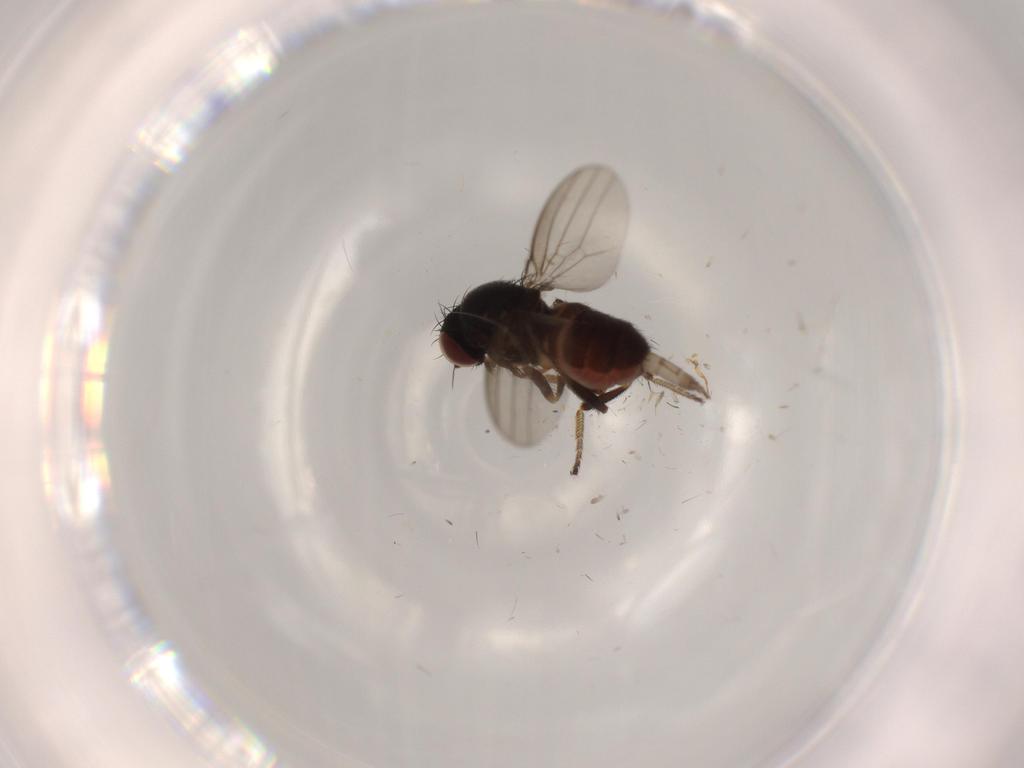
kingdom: Animalia
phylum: Arthropoda
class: Insecta
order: Diptera
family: Milichiidae
